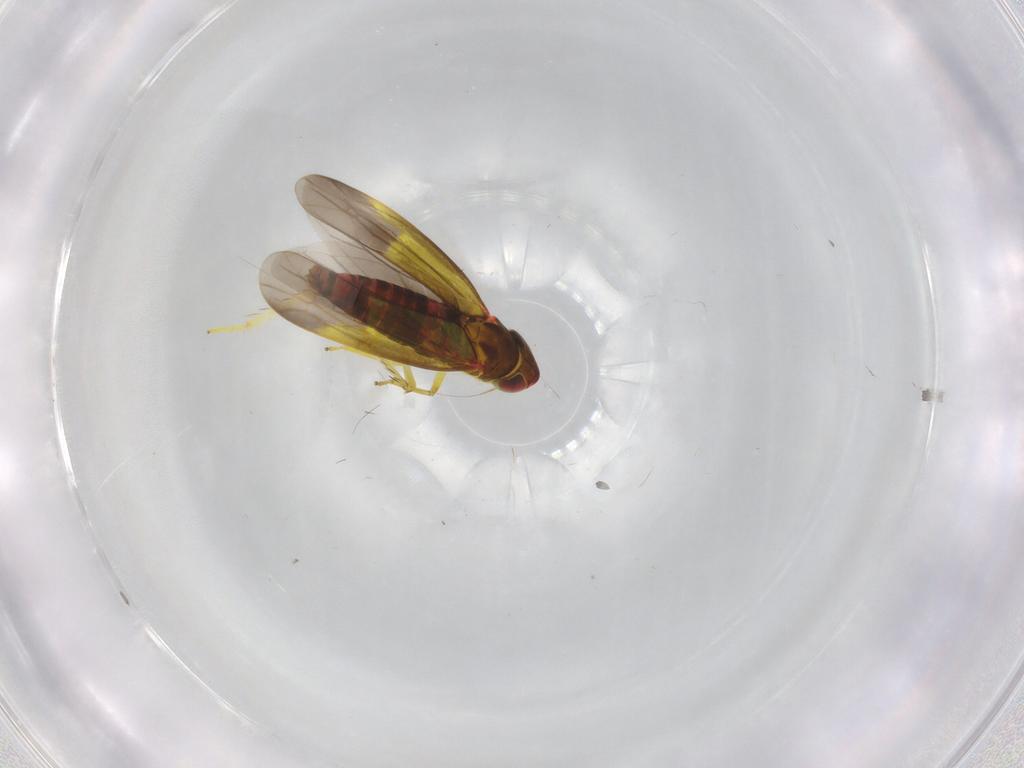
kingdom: Animalia
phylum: Arthropoda
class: Insecta
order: Hemiptera
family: Cicadellidae
